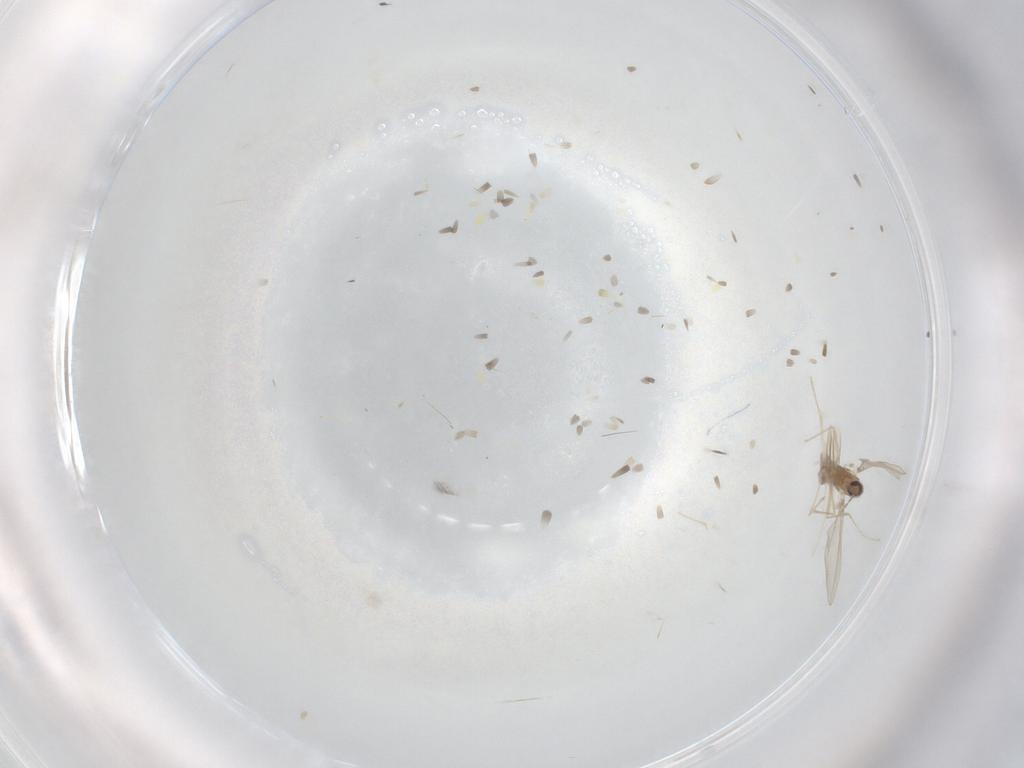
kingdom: Animalia
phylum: Arthropoda
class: Insecta
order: Diptera
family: Cecidomyiidae
